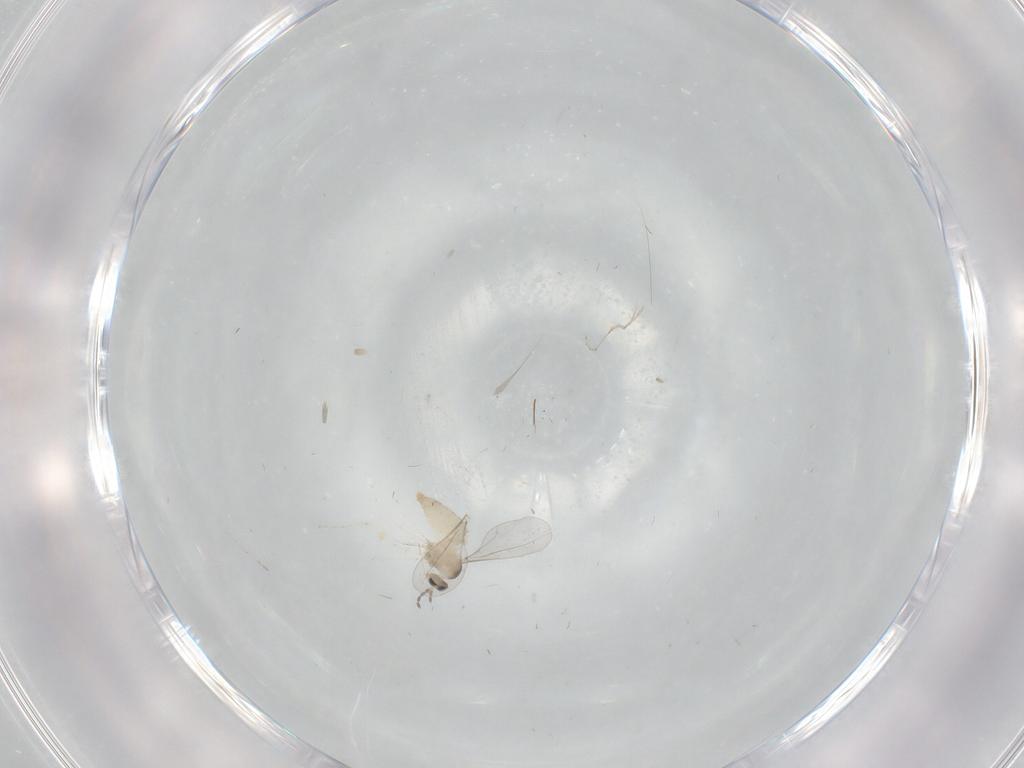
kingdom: Animalia
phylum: Arthropoda
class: Insecta
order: Diptera
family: Cecidomyiidae
